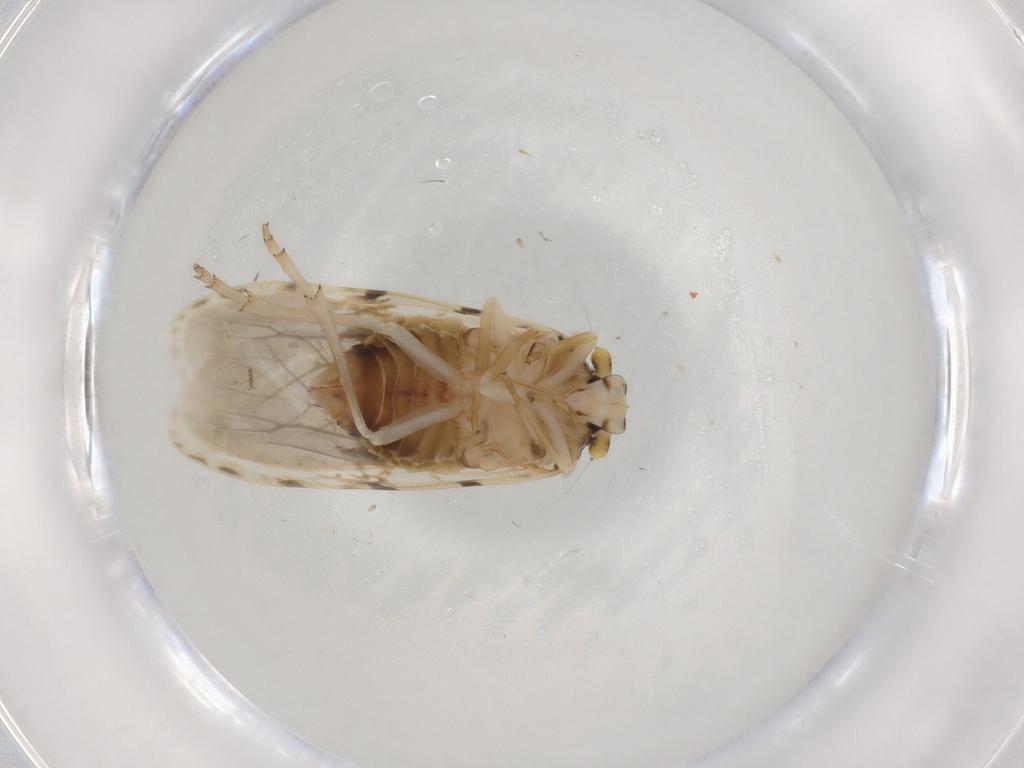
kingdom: Animalia
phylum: Arthropoda
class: Insecta
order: Hemiptera
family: Achilidae
